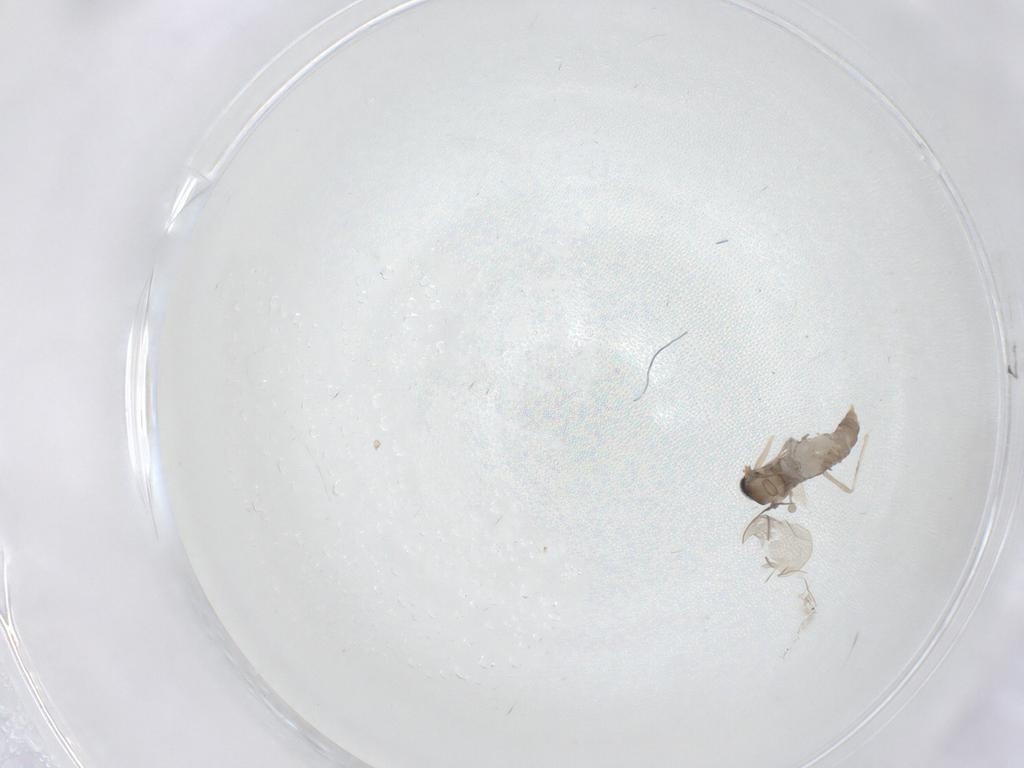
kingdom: Animalia
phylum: Arthropoda
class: Insecta
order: Diptera
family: Cecidomyiidae
